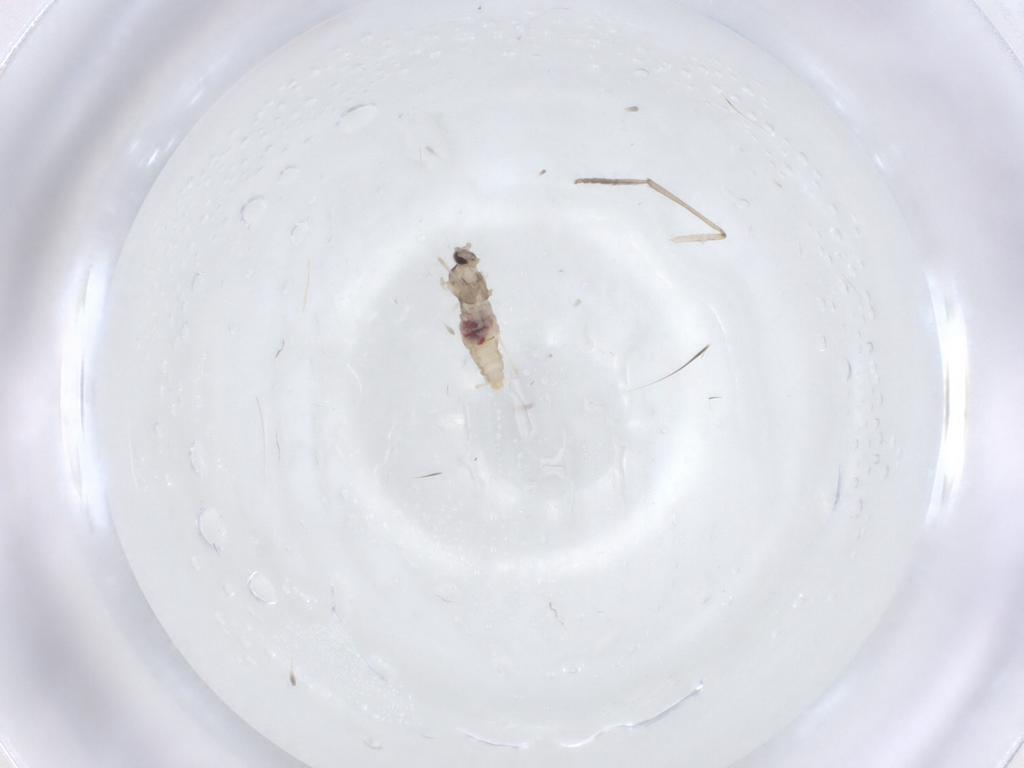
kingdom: Animalia
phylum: Arthropoda
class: Insecta
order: Diptera
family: Cecidomyiidae
